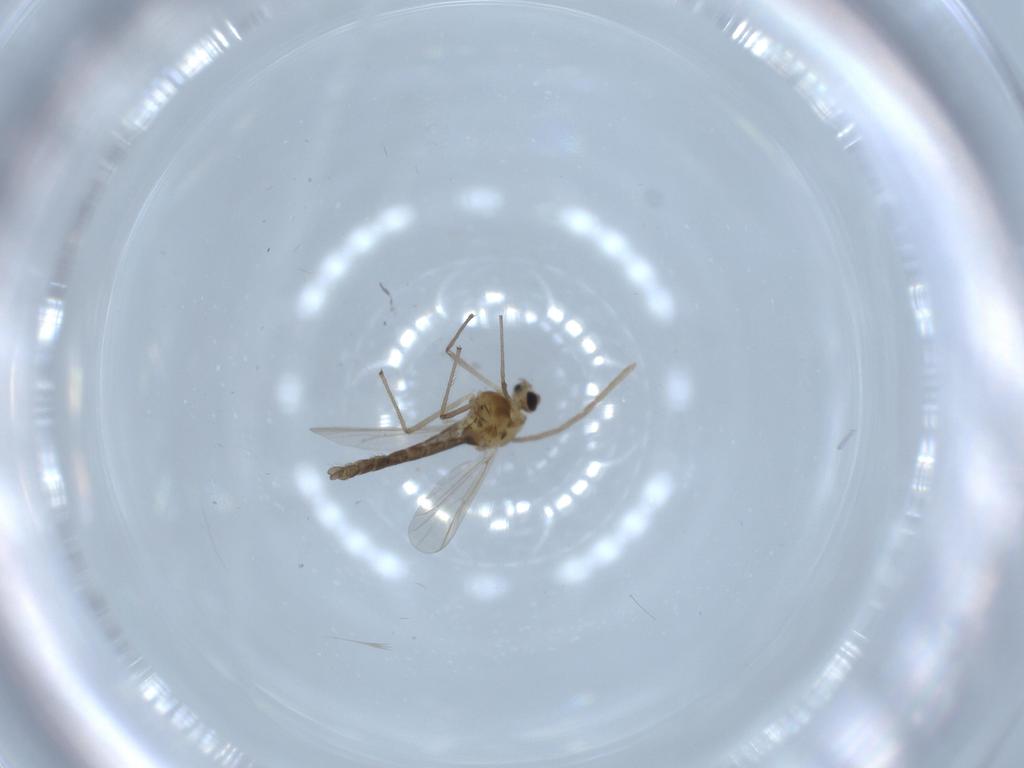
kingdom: Animalia
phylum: Arthropoda
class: Insecta
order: Diptera
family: Chironomidae
